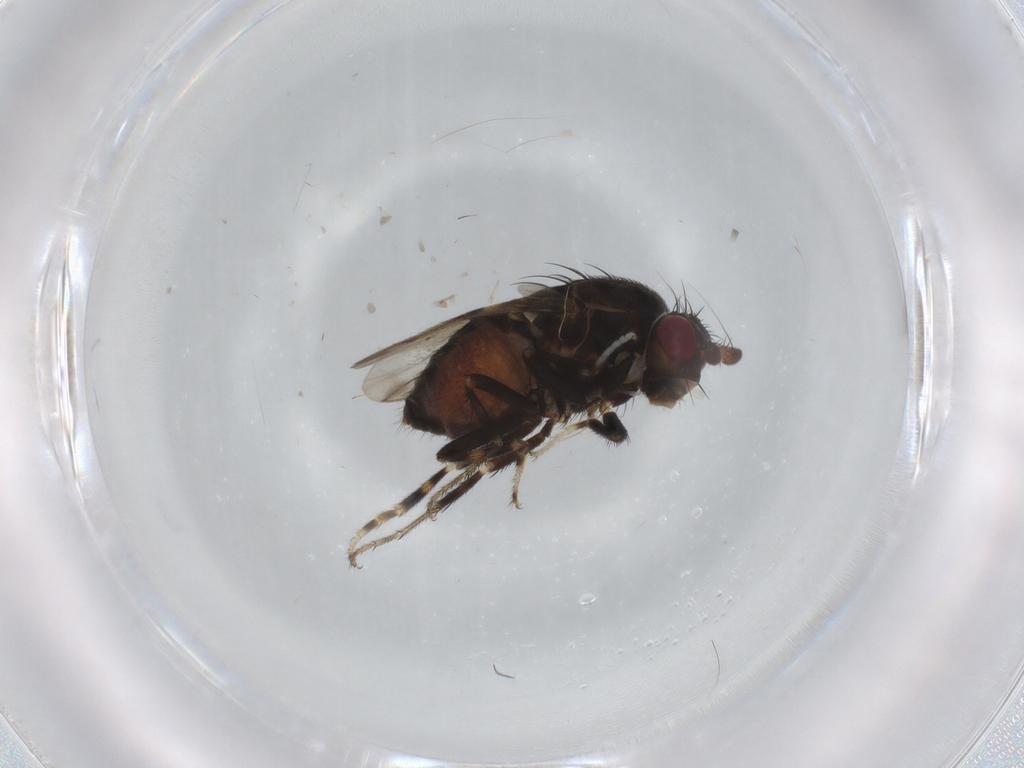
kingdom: Animalia
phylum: Arthropoda
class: Insecta
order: Diptera
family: Sphaeroceridae
